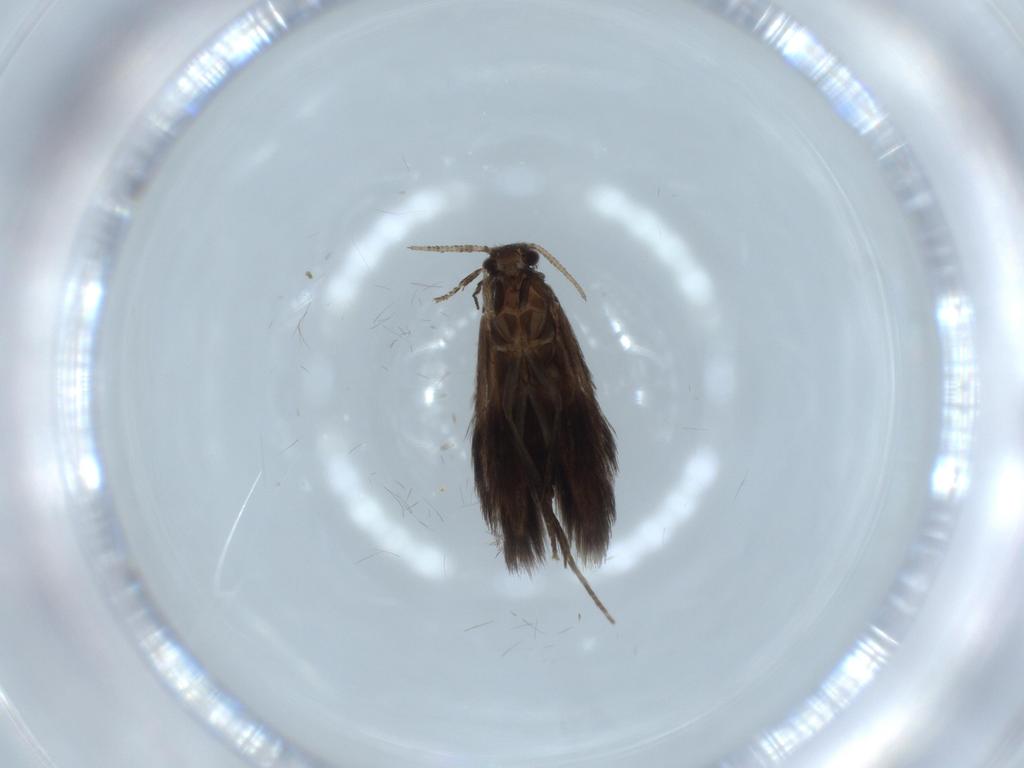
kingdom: Animalia
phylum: Arthropoda
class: Insecta
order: Trichoptera
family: Hydroptilidae
